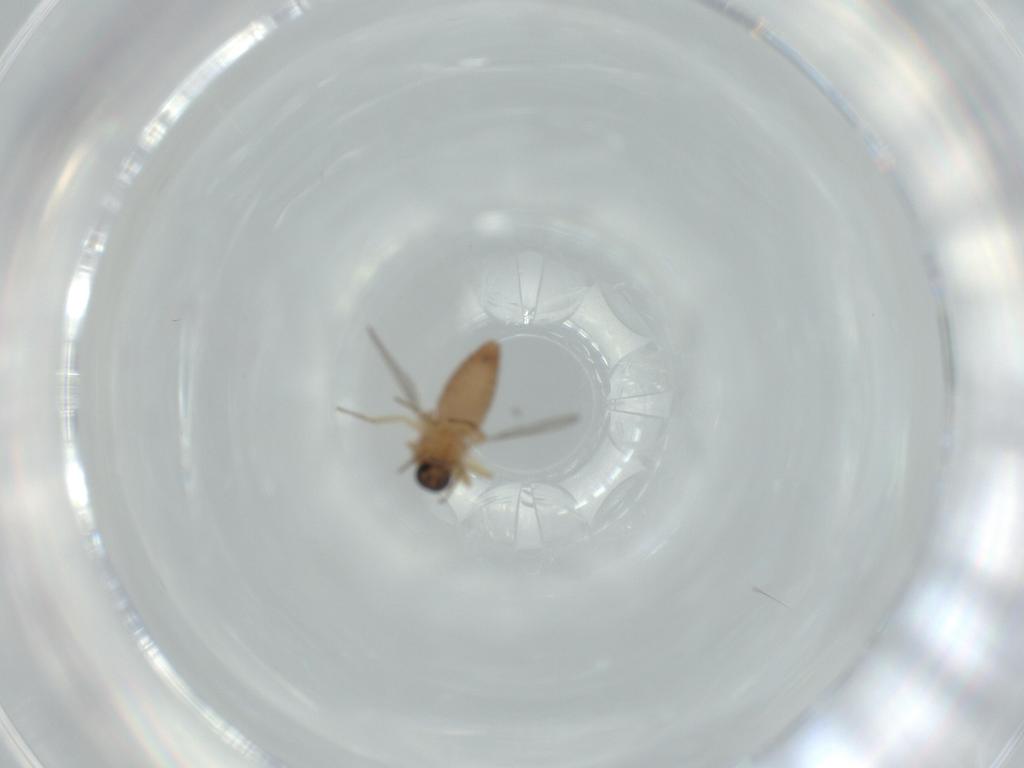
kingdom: Animalia
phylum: Arthropoda
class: Insecta
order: Diptera
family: Ceratopogonidae
